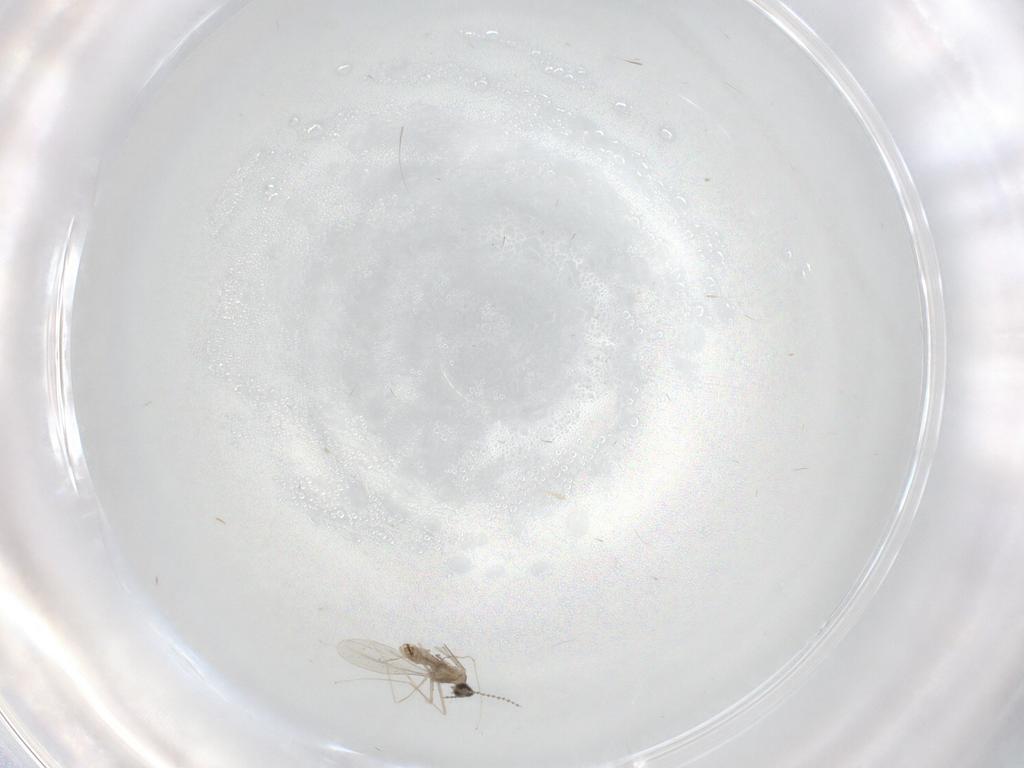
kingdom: Animalia
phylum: Arthropoda
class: Insecta
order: Diptera
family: Cecidomyiidae
